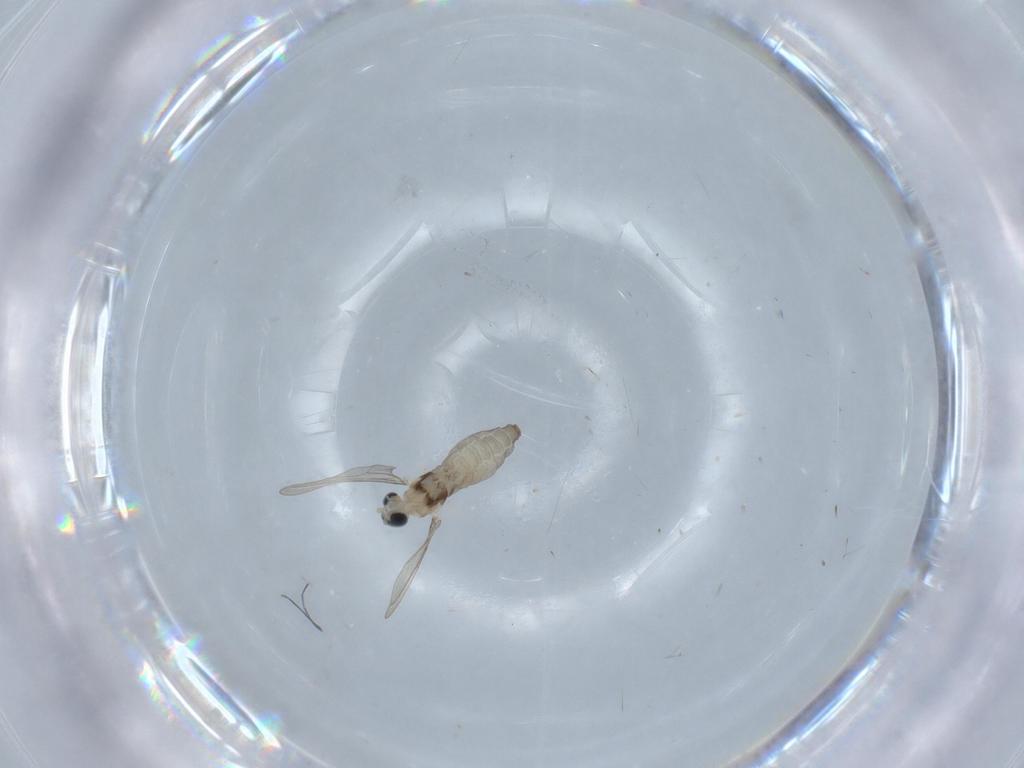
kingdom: Animalia
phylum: Arthropoda
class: Insecta
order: Diptera
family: Cecidomyiidae
